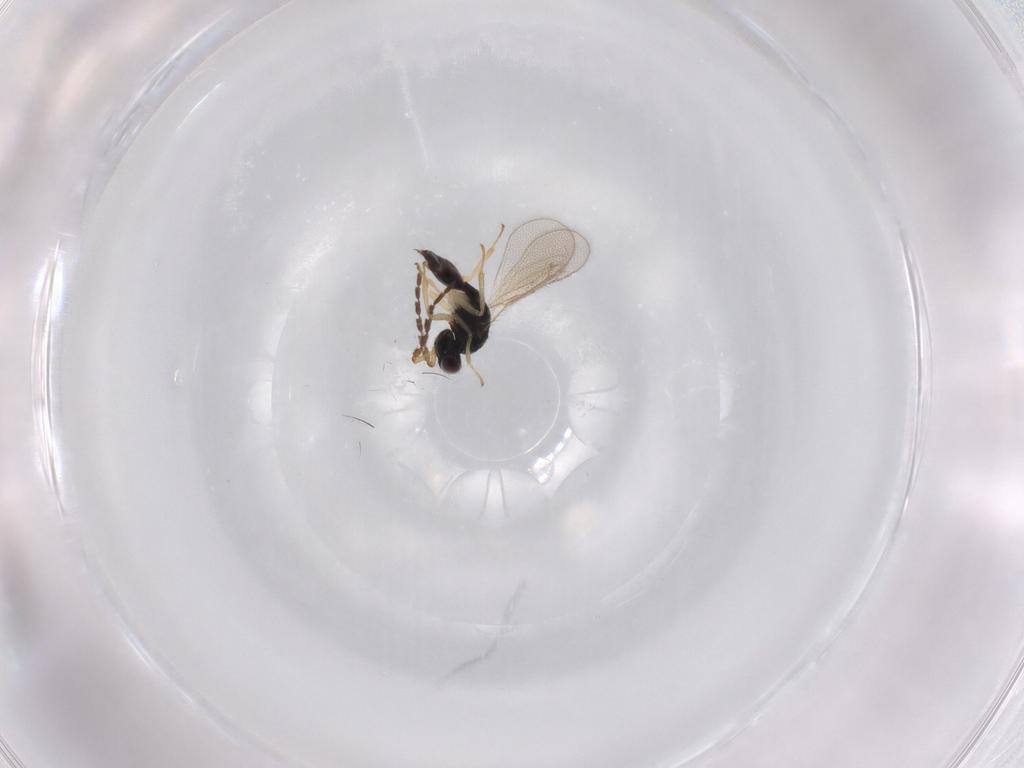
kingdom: Animalia
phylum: Arthropoda
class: Insecta
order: Hymenoptera
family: Eulophidae
